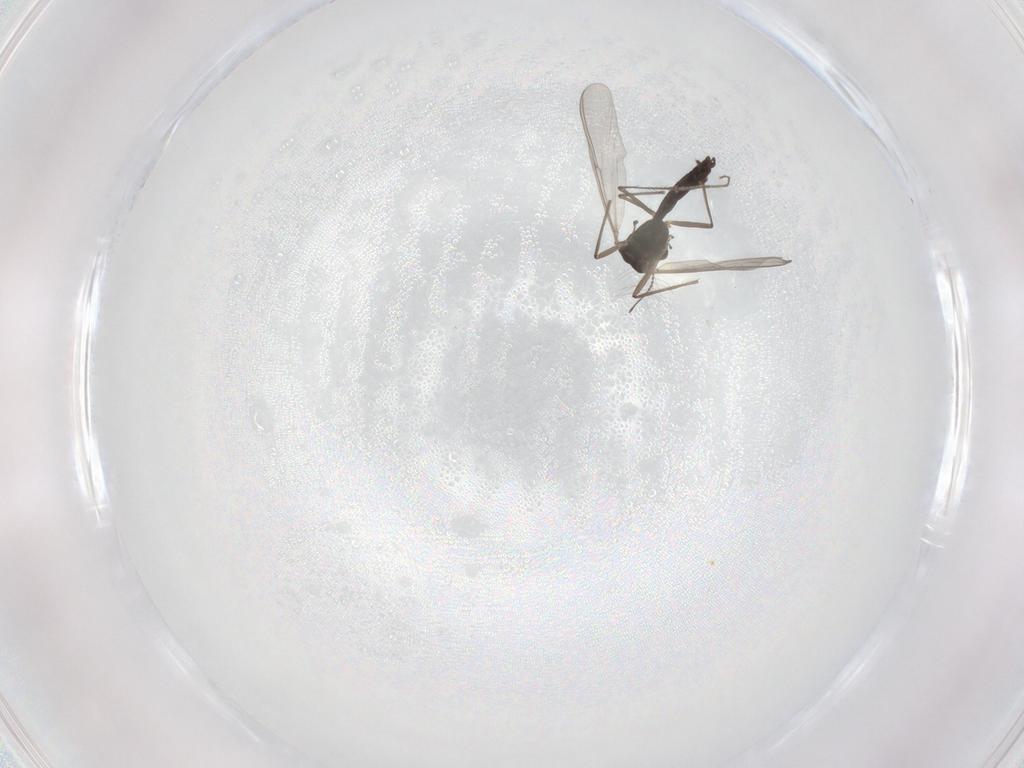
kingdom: Animalia
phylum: Arthropoda
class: Insecta
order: Diptera
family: Chironomidae
